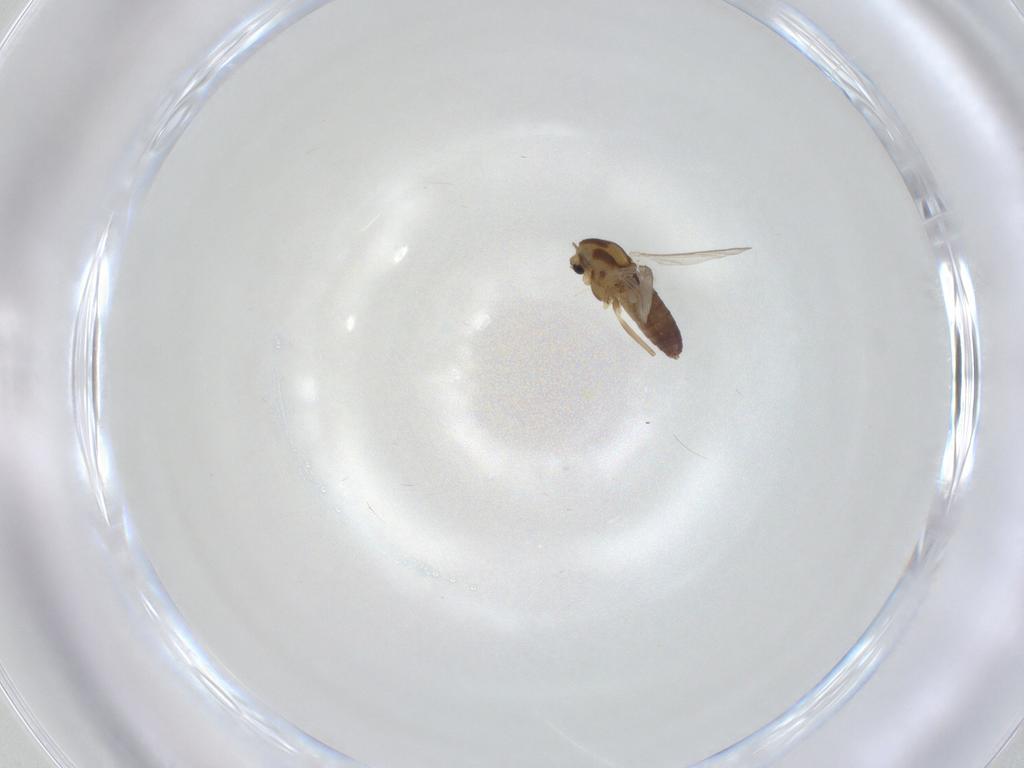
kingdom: Animalia
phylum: Arthropoda
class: Insecta
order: Diptera
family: Chironomidae
